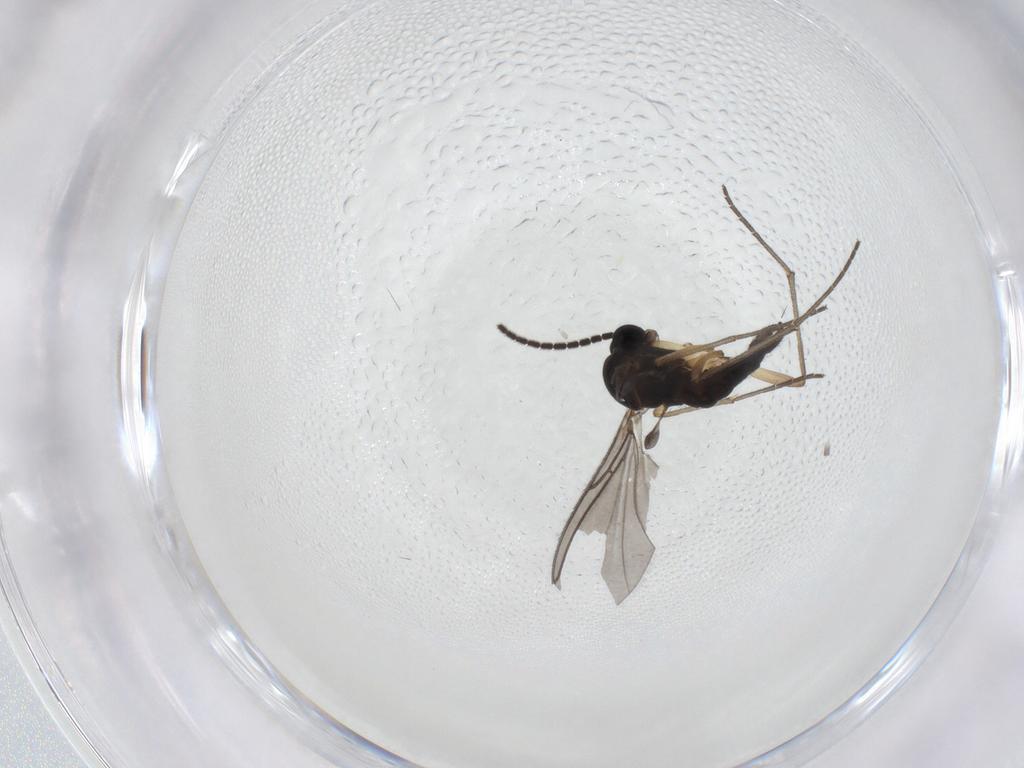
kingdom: Animalia
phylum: Arthropoda
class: Insecta
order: Diptera
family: Sciaridae
